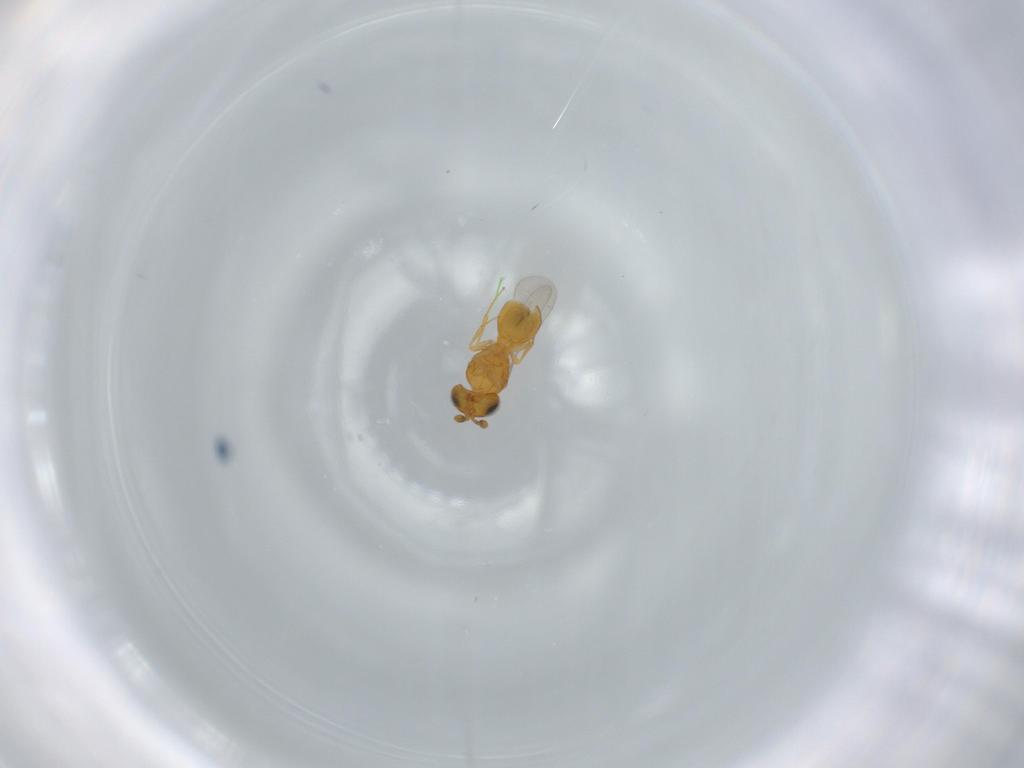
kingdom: Animalia
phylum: Arthropoda
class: Insecta
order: Hymenoptera
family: Scelionidae
